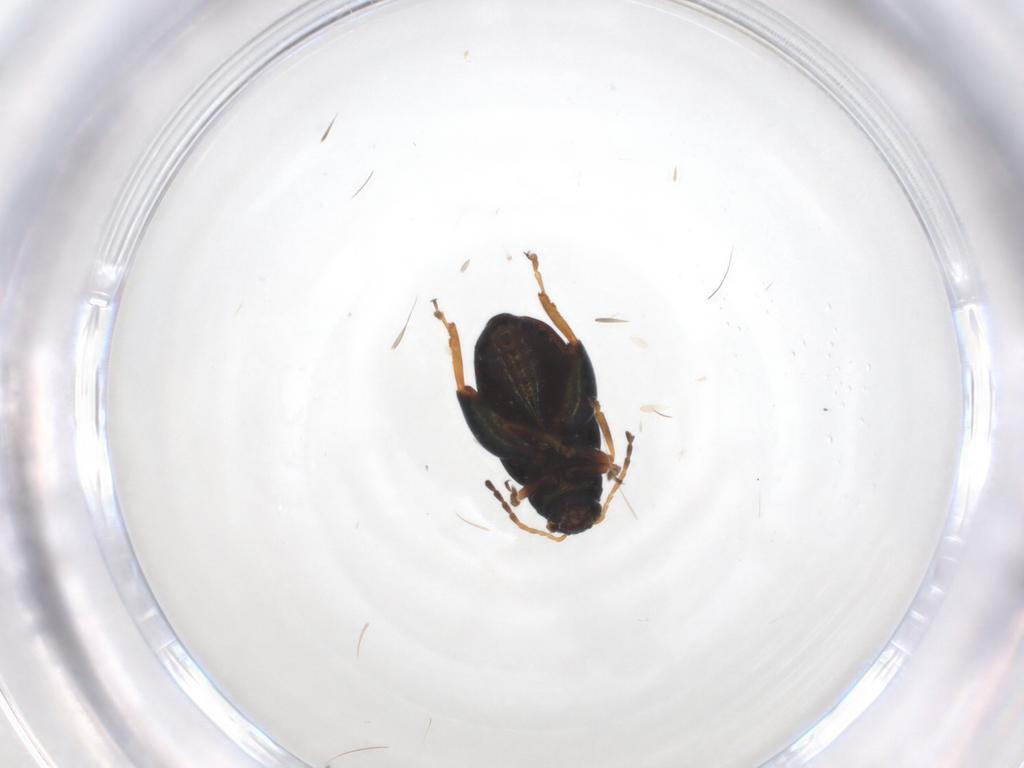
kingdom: Animalia
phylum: Arthropoda
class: Insecta
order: Coleoptera
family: Chrysomelidae
